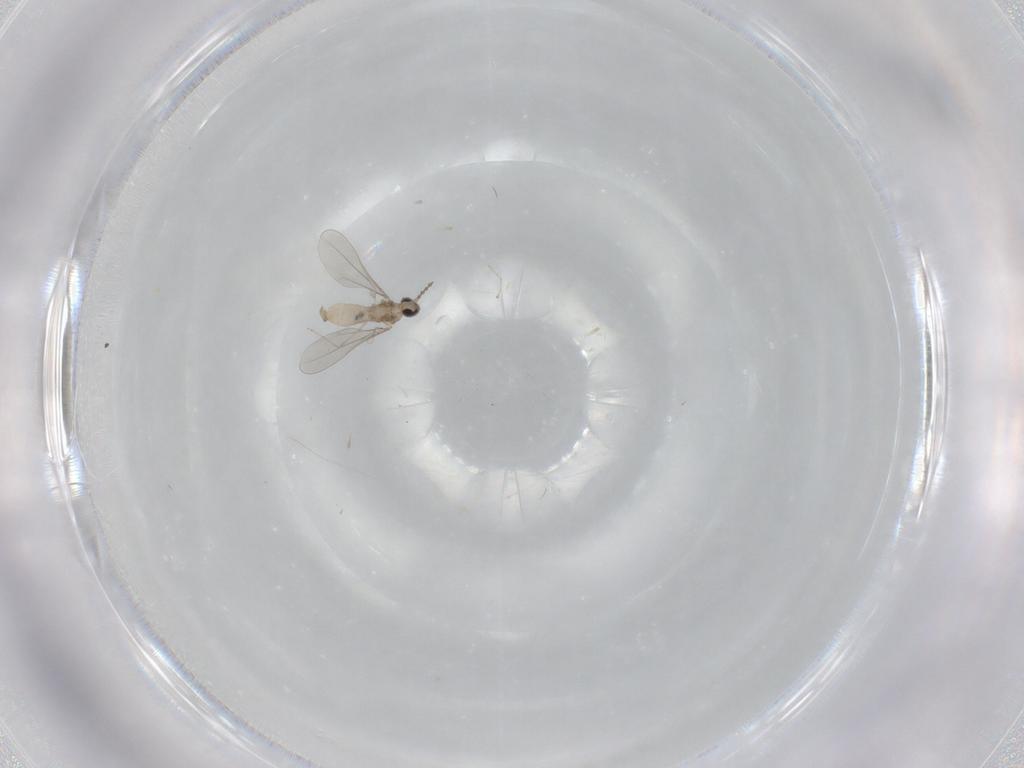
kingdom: Animalia
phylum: Arthropoda
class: Insecta
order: Diptera
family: Cecidomyiidae
